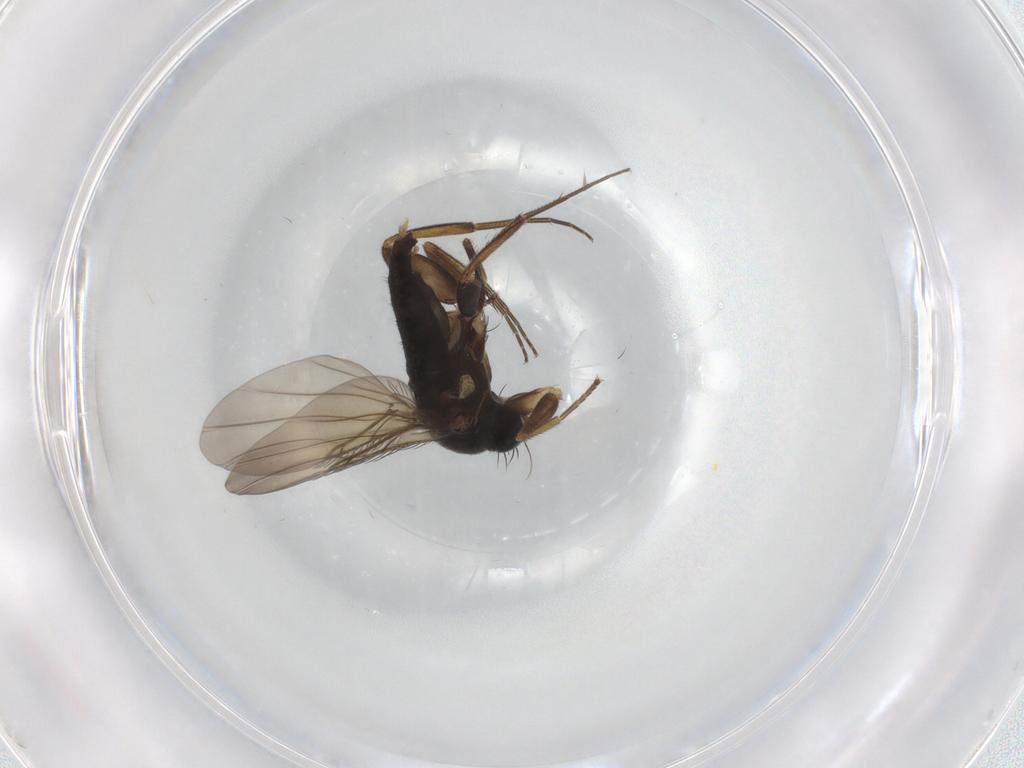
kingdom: Animalia
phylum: Arthropoda
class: Insecta
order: Diptera
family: Phoridae
